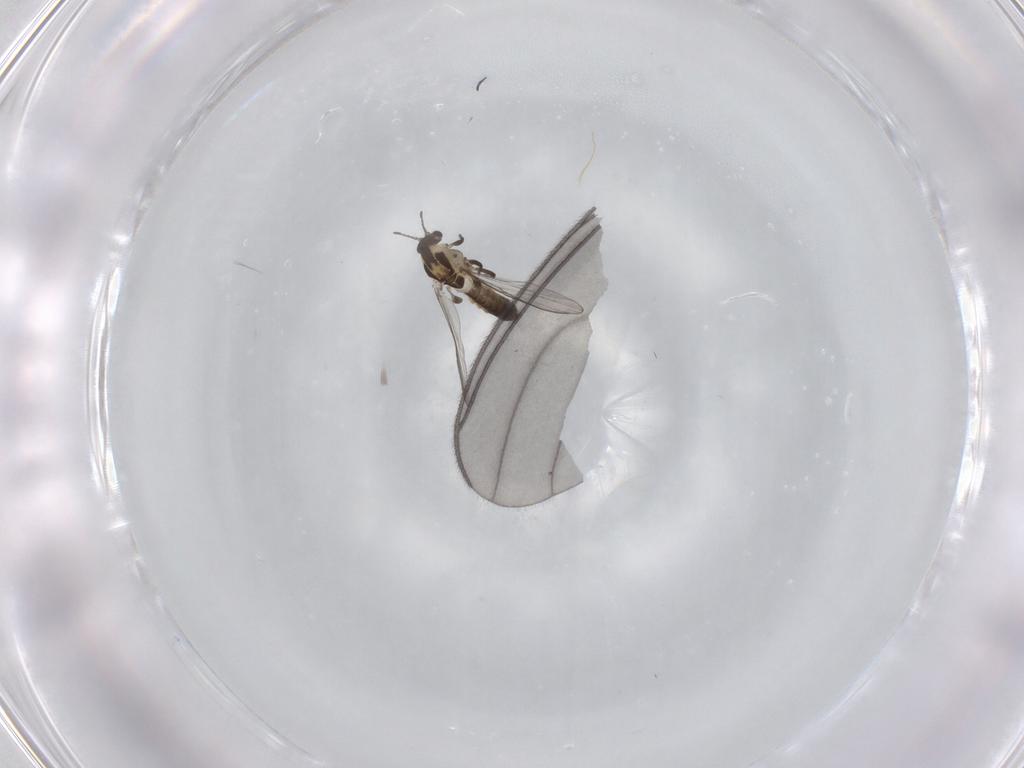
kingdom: Animalia
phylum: Arthropoda
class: Insecta
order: Diptera
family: Chironomidae
